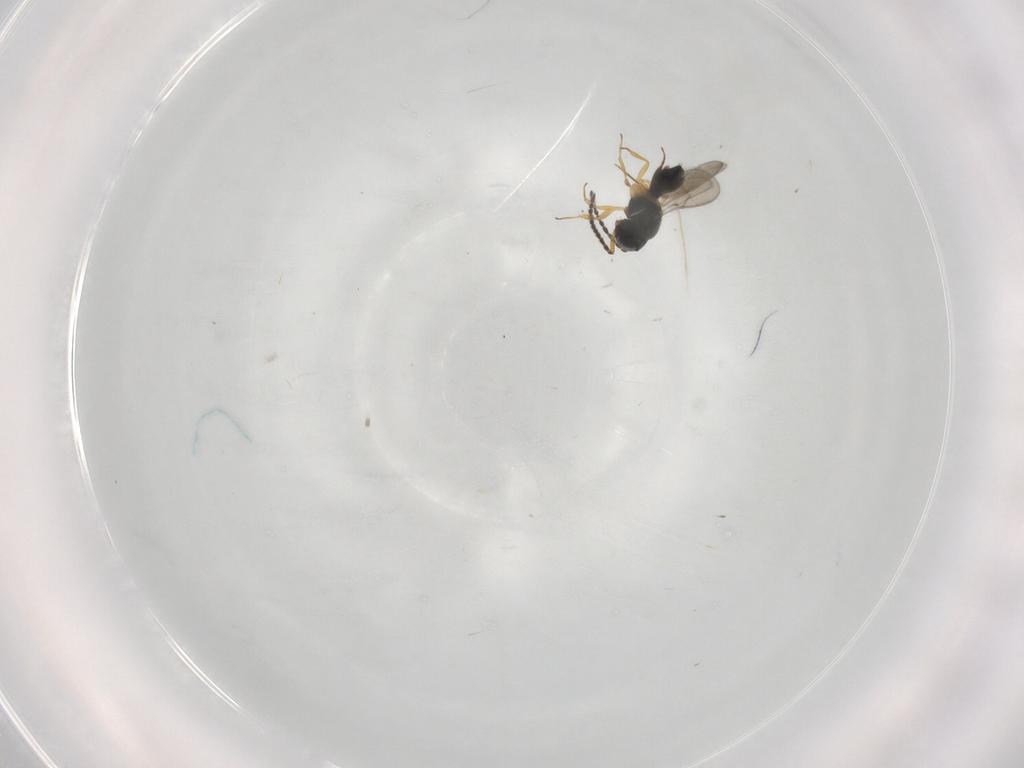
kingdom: Animalia
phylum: Arthropoda
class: Insecta
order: Hymenoptera
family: Scelionidae
